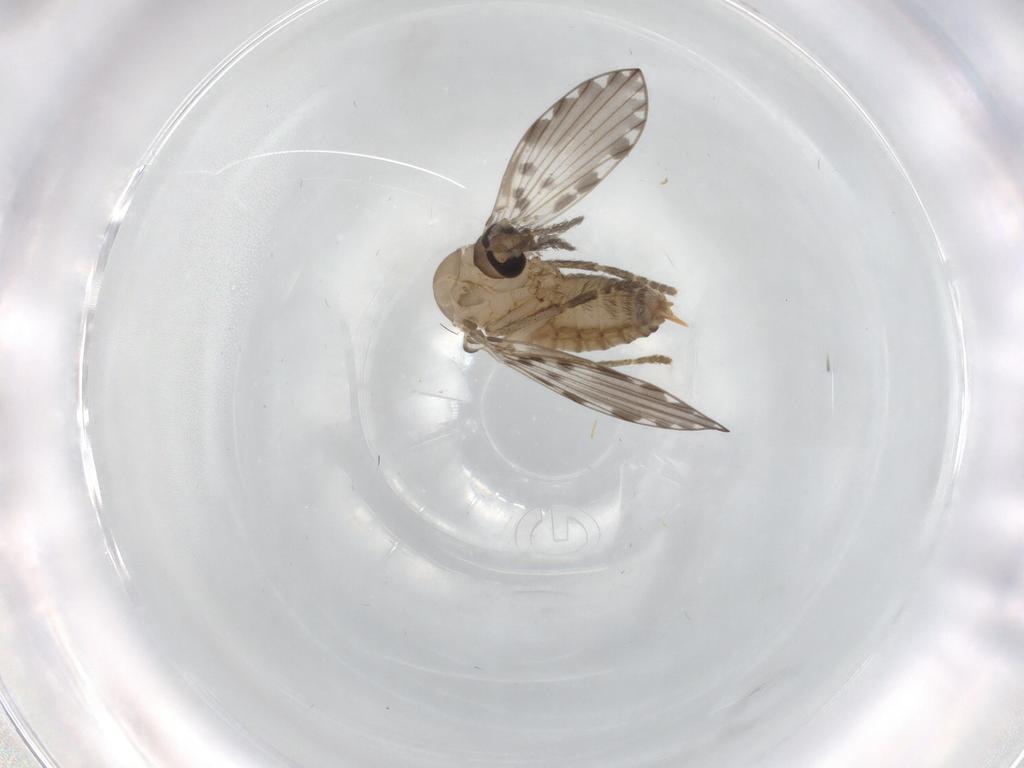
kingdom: Animalia
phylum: Arthropoda
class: Insecta
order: Diptera
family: Psychodidae
